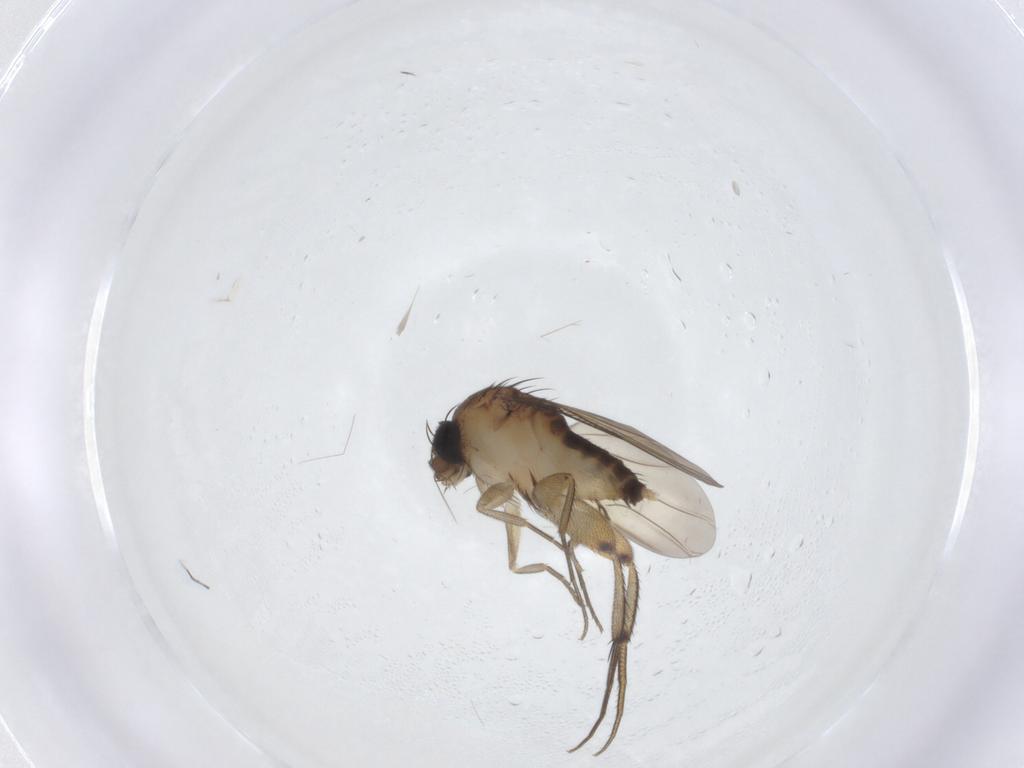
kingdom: Animalia
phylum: Arthropoda
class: Insecta
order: Diptera
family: Phoridae
